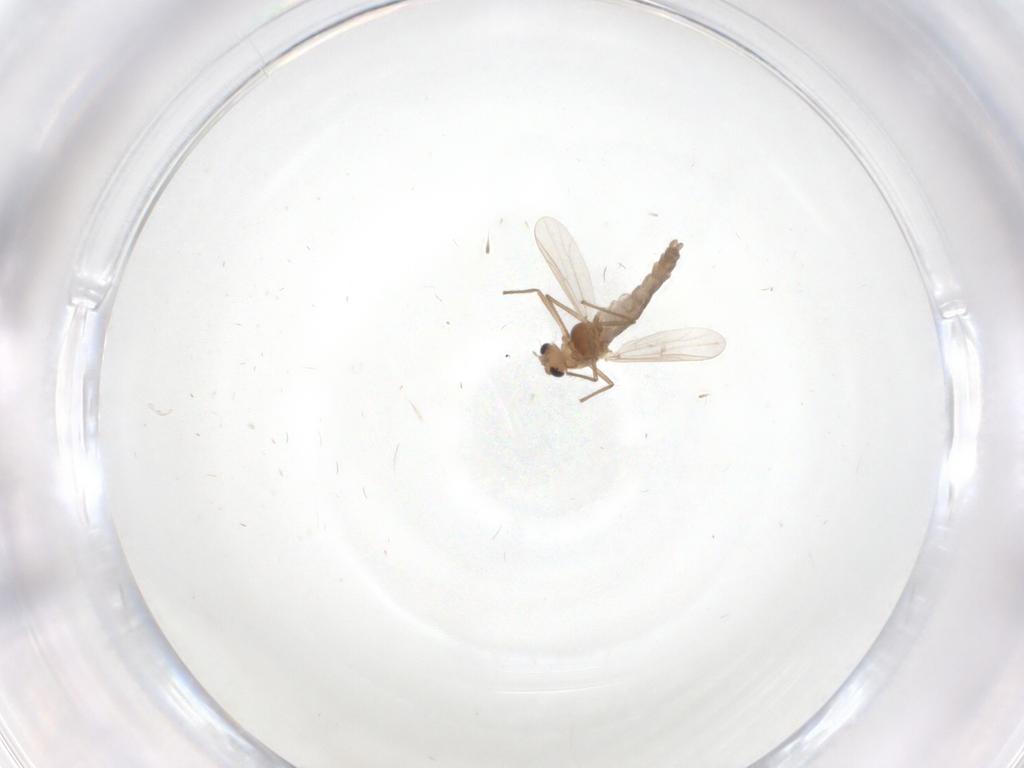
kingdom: Animalia
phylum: Arthropoda
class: Insecta
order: Diptera
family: Chironomidae
